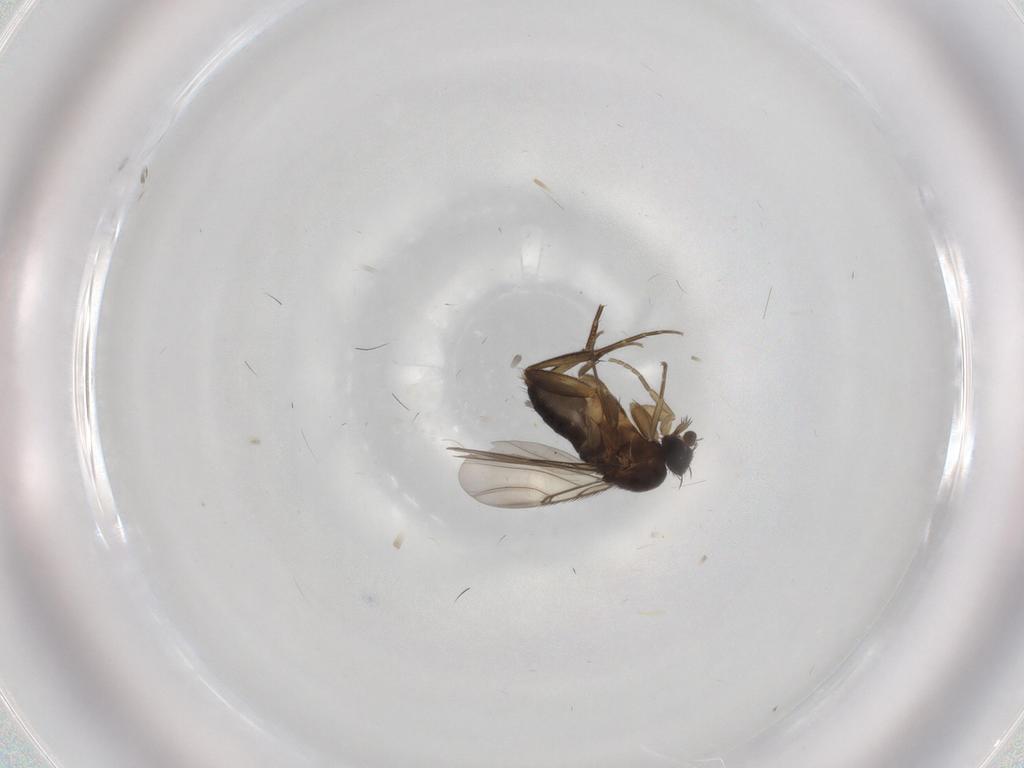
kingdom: Animalia
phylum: Arthropoda
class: Insecta
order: Diptera
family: Phoridae
